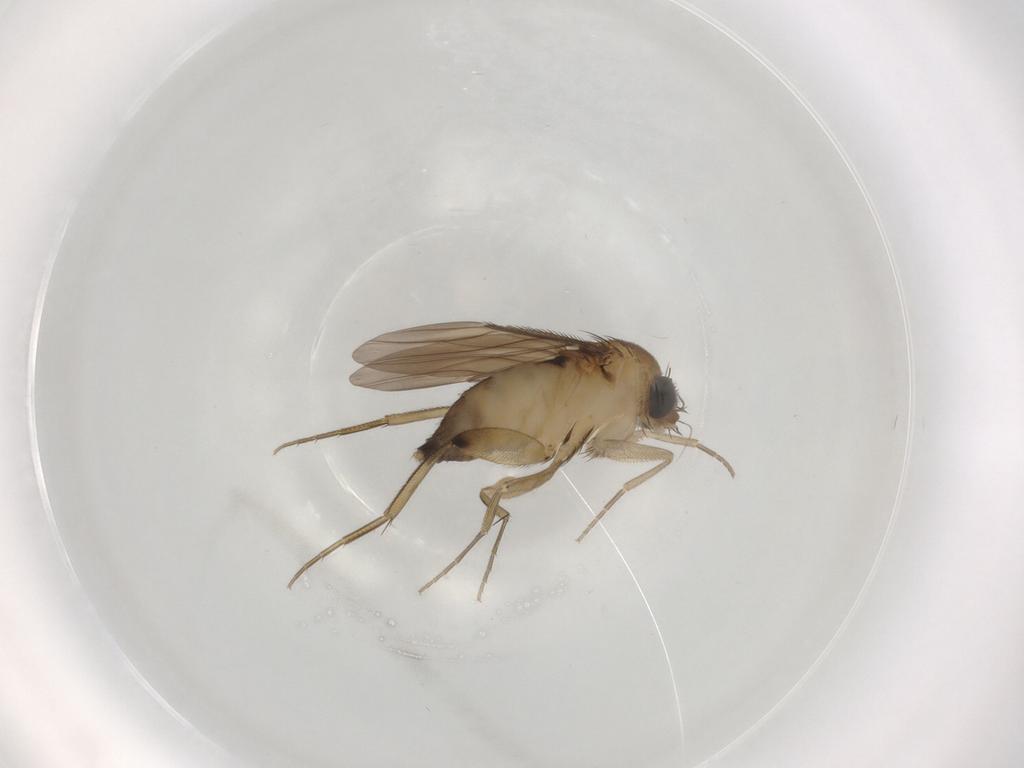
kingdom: Animalia
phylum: Arthropoda
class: Insecta
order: Diptera
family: Phoridae
